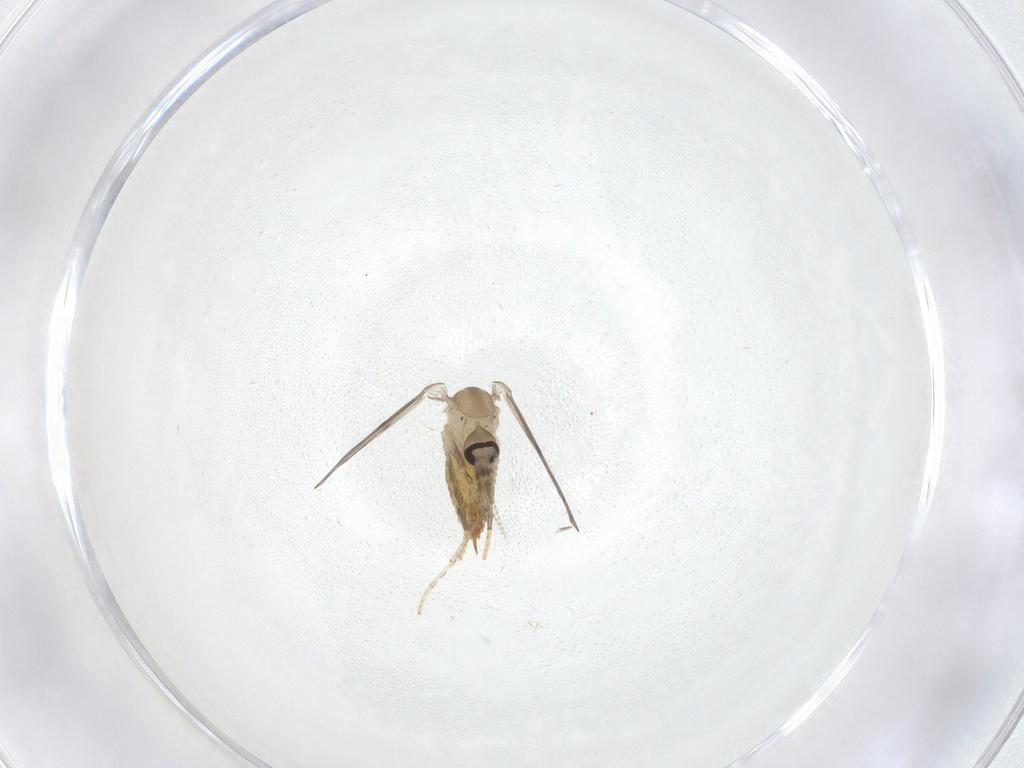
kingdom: Animalia
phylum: Arthropoda
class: Insecta
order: Diptera
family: Psychodidae
